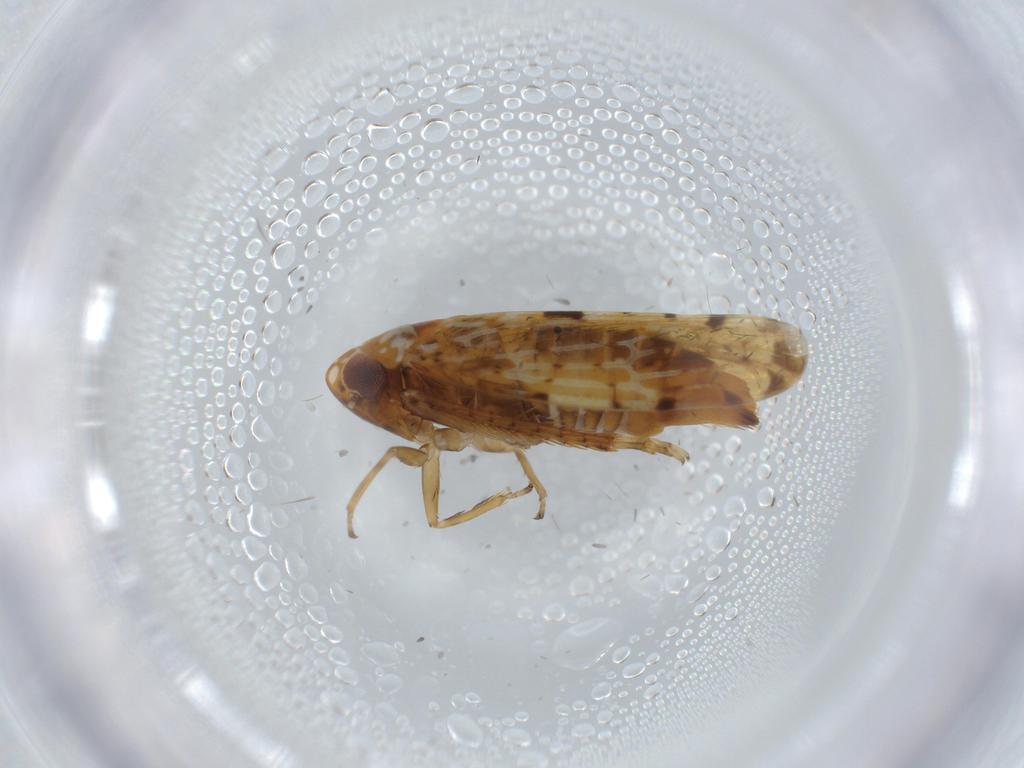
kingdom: Animalia
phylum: Arthropoda
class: Insecta
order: Hemiptera
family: Cicadellidae
